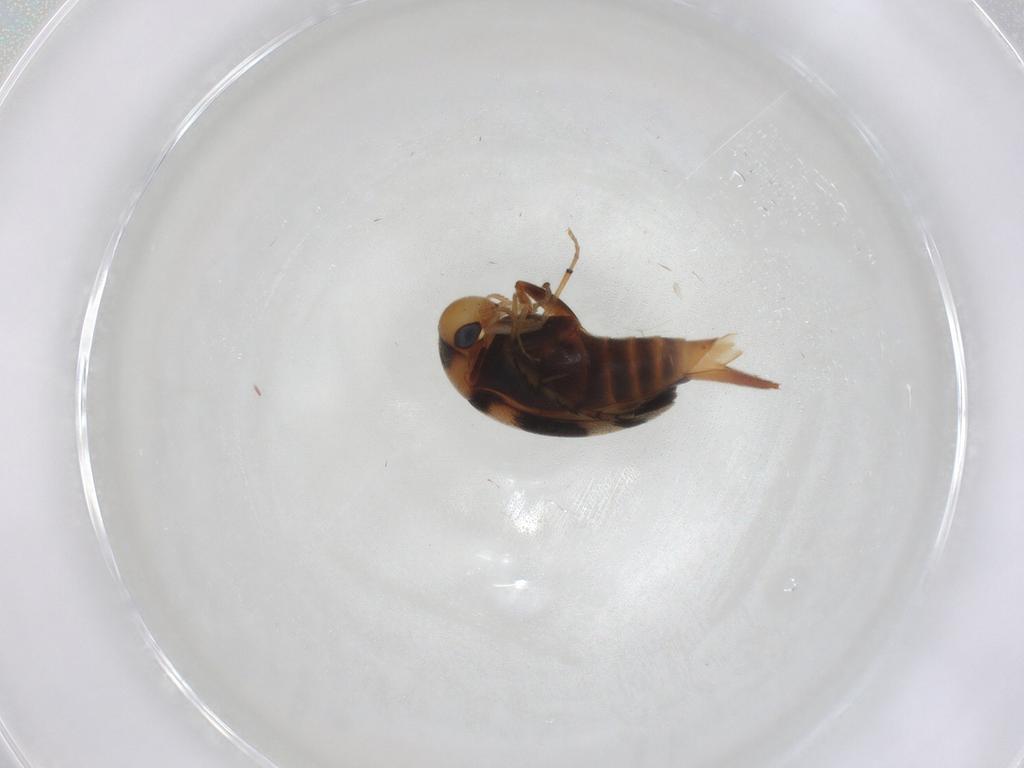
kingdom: Animalia
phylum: Arthropoda
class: Insecta
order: Coleoptera
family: Mordellidae
